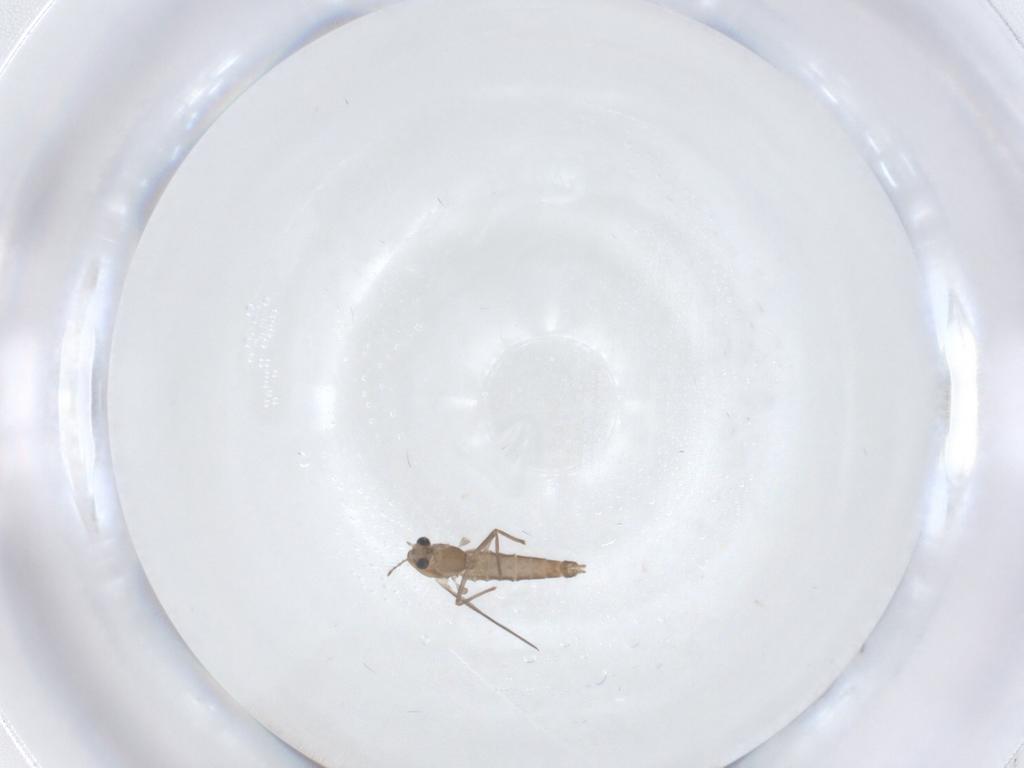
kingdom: Animalia
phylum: Arthropoda
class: Insecta
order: Diptera
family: Chironomidae
